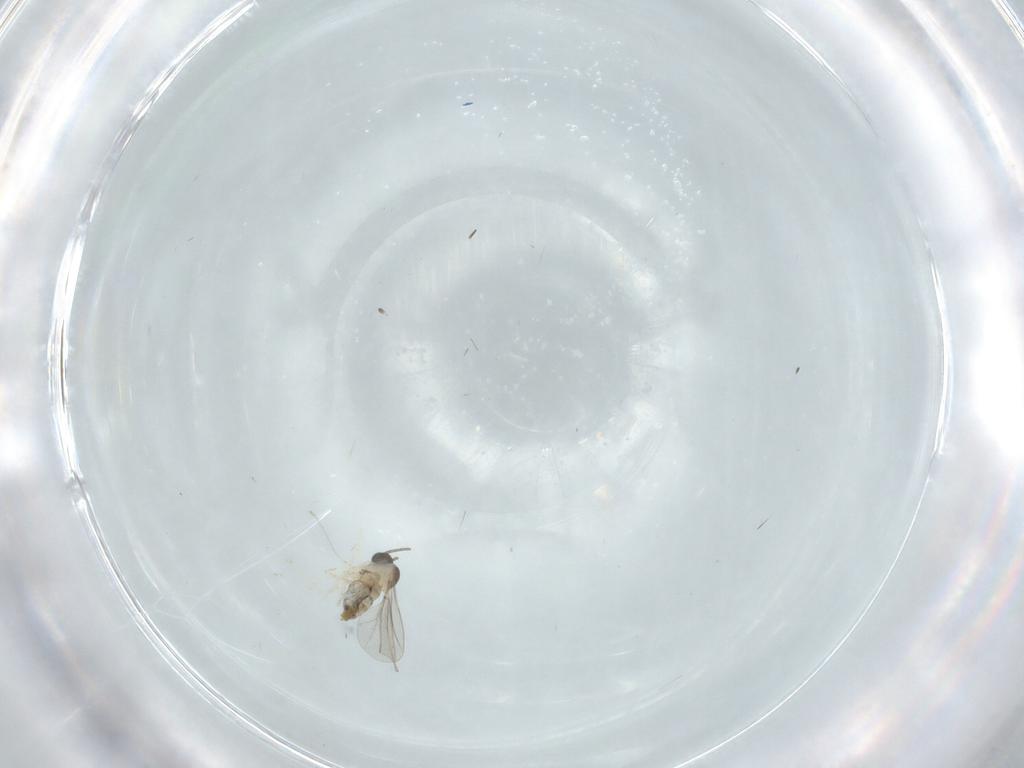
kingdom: Animalia
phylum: Arthropoda
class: Insecta
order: Diptera
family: Cecidomyiidae
